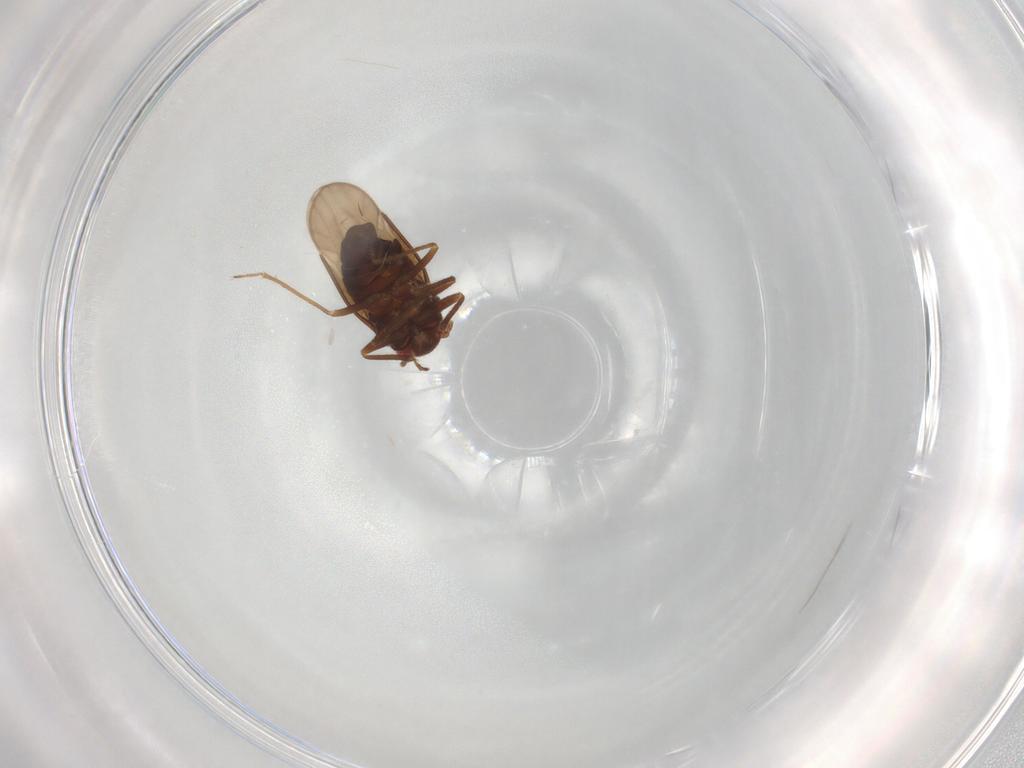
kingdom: Animalia
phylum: Arthropoda
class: Insecta
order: Hemiptera
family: Schizopteridae
